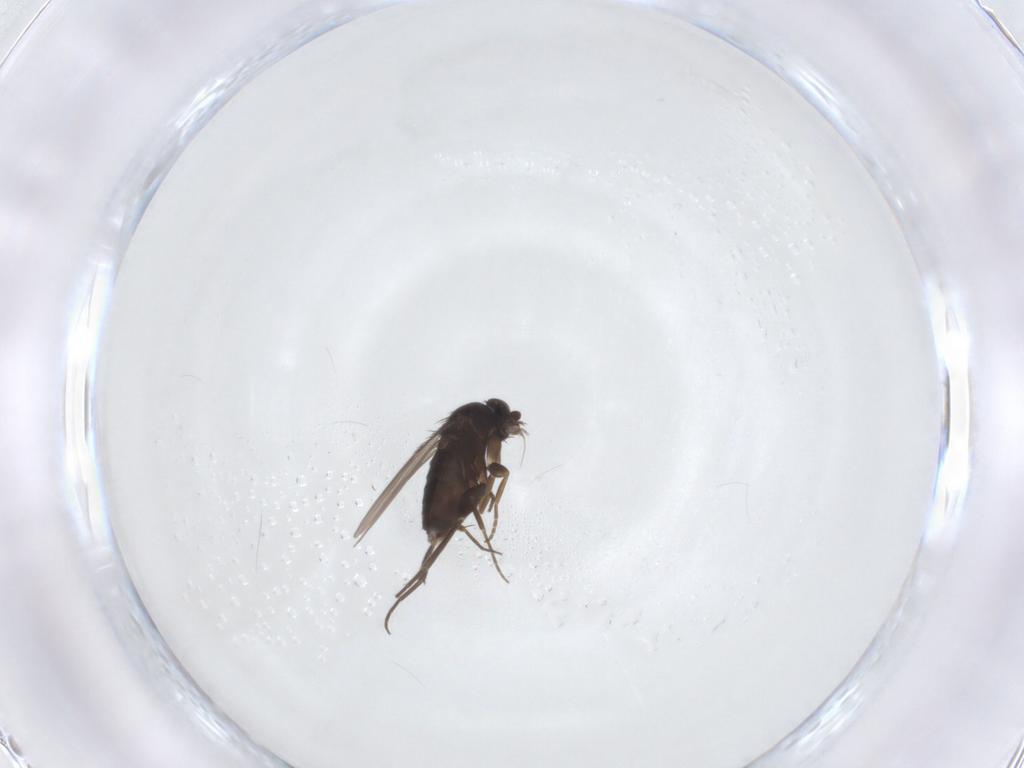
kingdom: Animalia
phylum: Arthropoda
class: Insecta
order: Diptera
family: Phoridae
